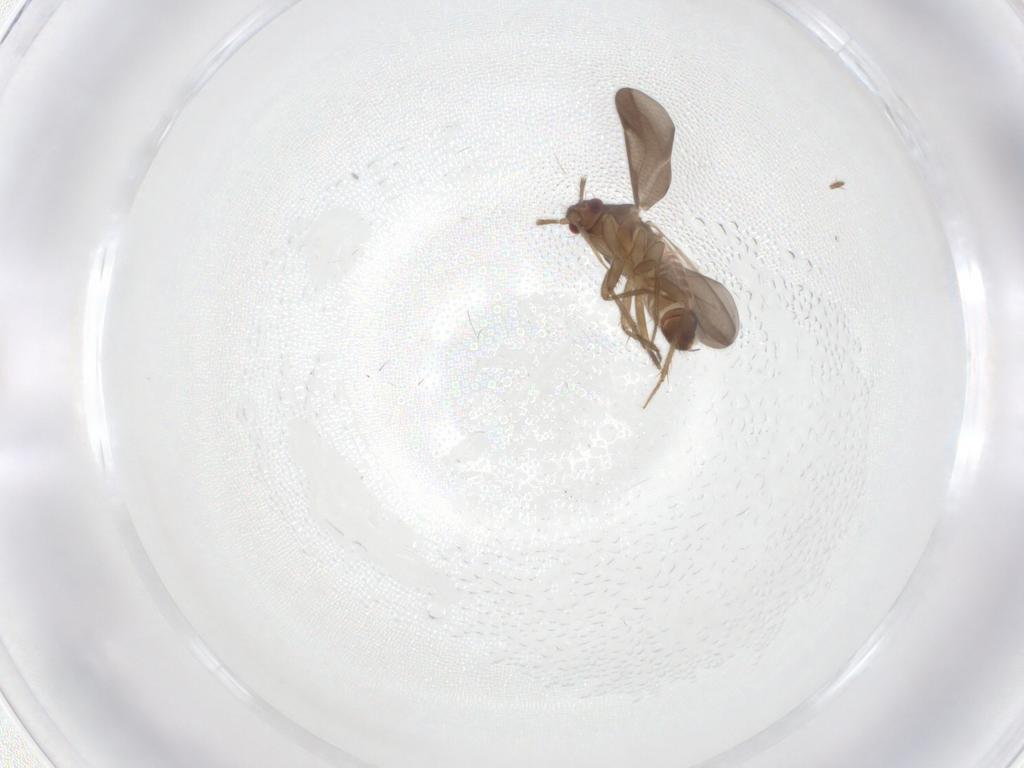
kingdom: Animalia
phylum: Arthropoda
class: Insecta
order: Hemiptera
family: Ceratocombidae
